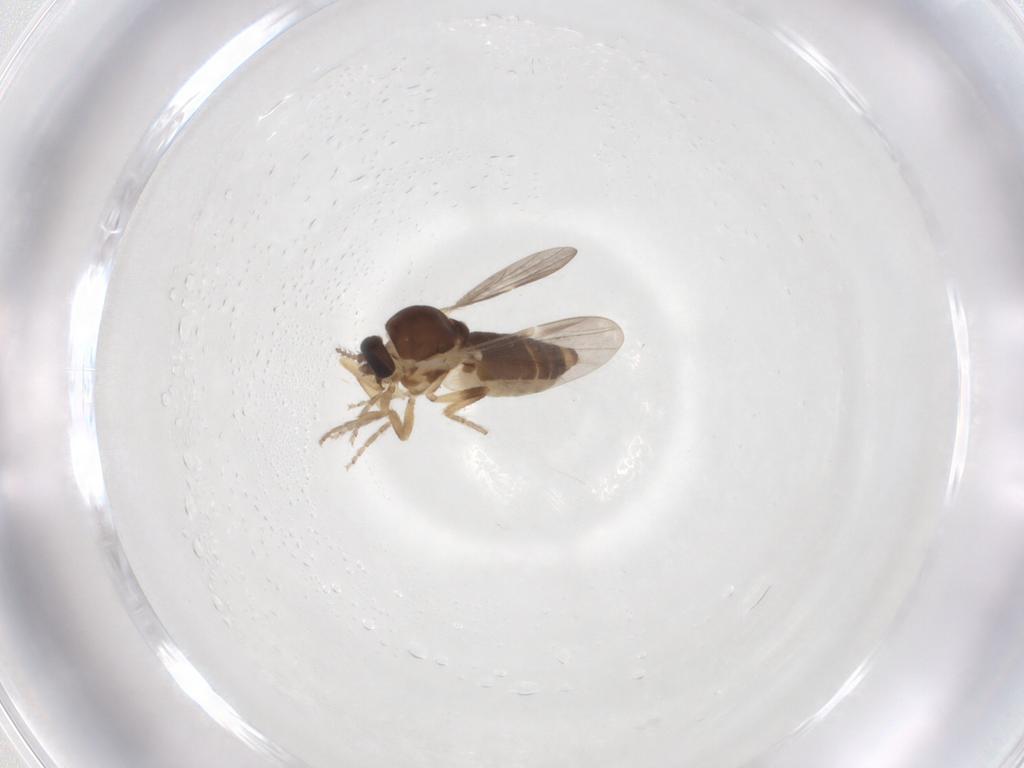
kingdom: Animalia
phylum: Arthropoda
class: Insecta
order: Diptera
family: Ceratopogonidae
